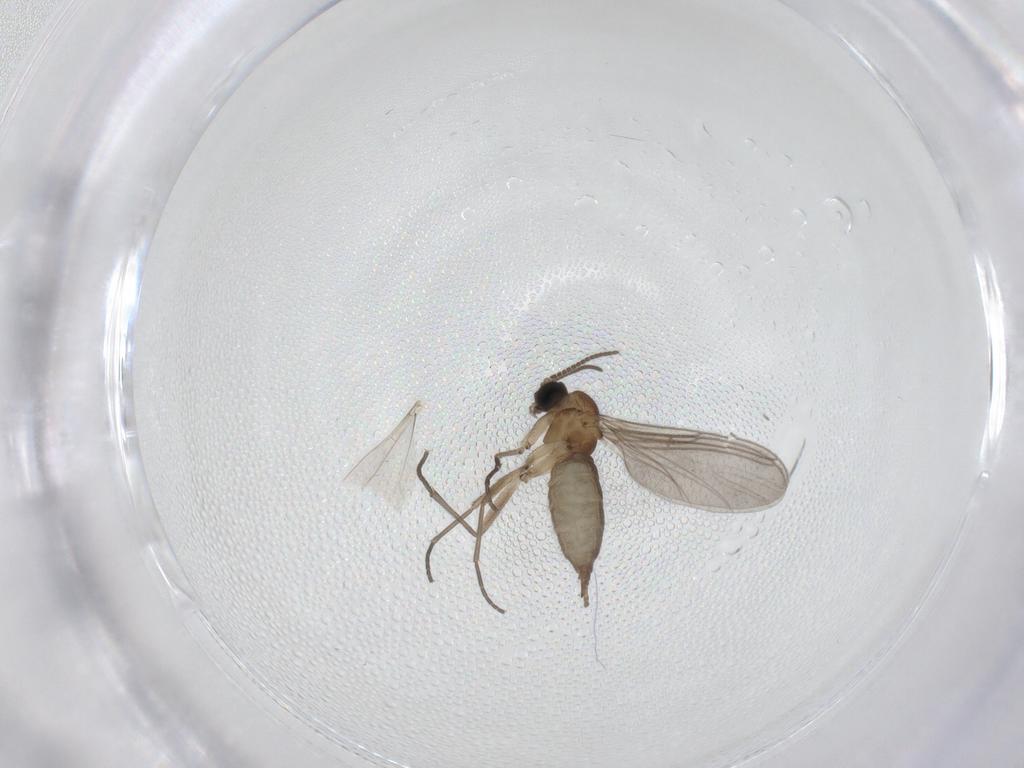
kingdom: Animalia
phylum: Arthropoda
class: Insecta
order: Diptera
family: Sciaridae
